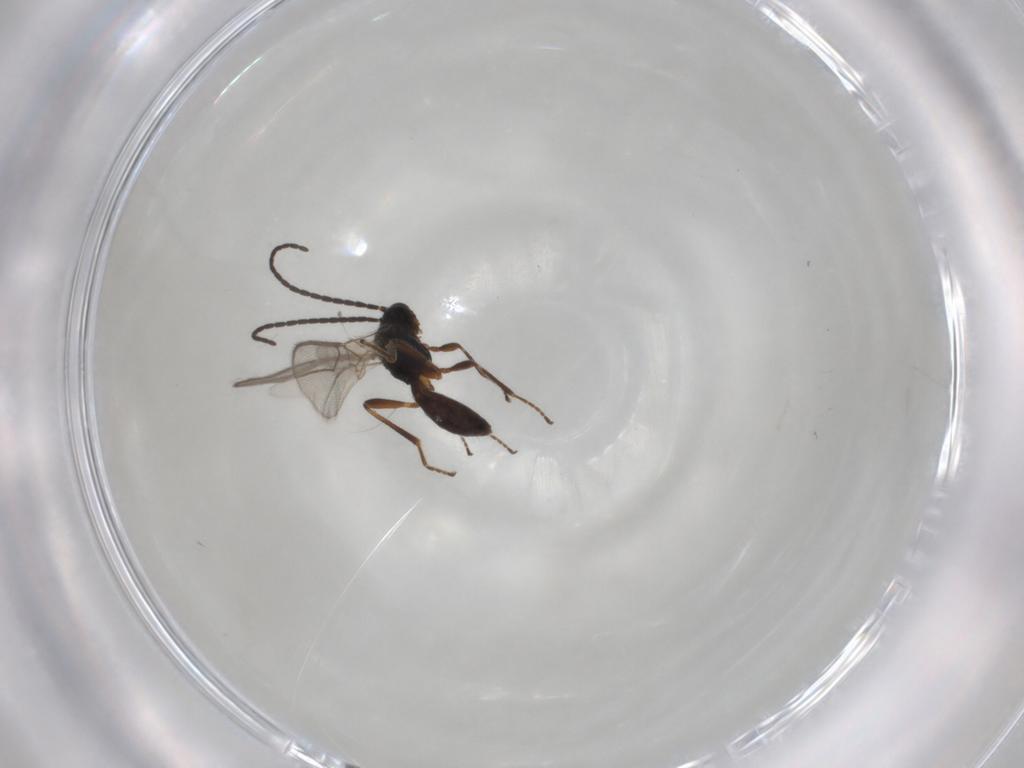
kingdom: Animalia
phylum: Arthropoda
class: Insecta
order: Hymenoptera
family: Braconidae
